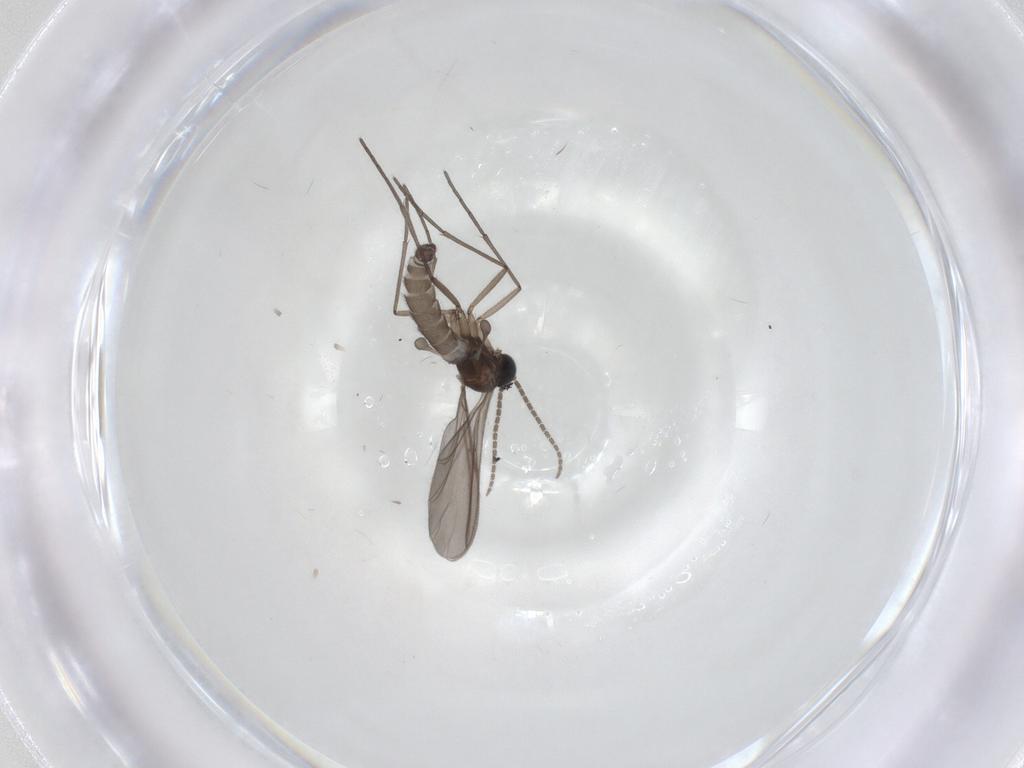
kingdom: Animalia
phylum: Arthropoda
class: Insecta
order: Diptera
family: Sciaridae
